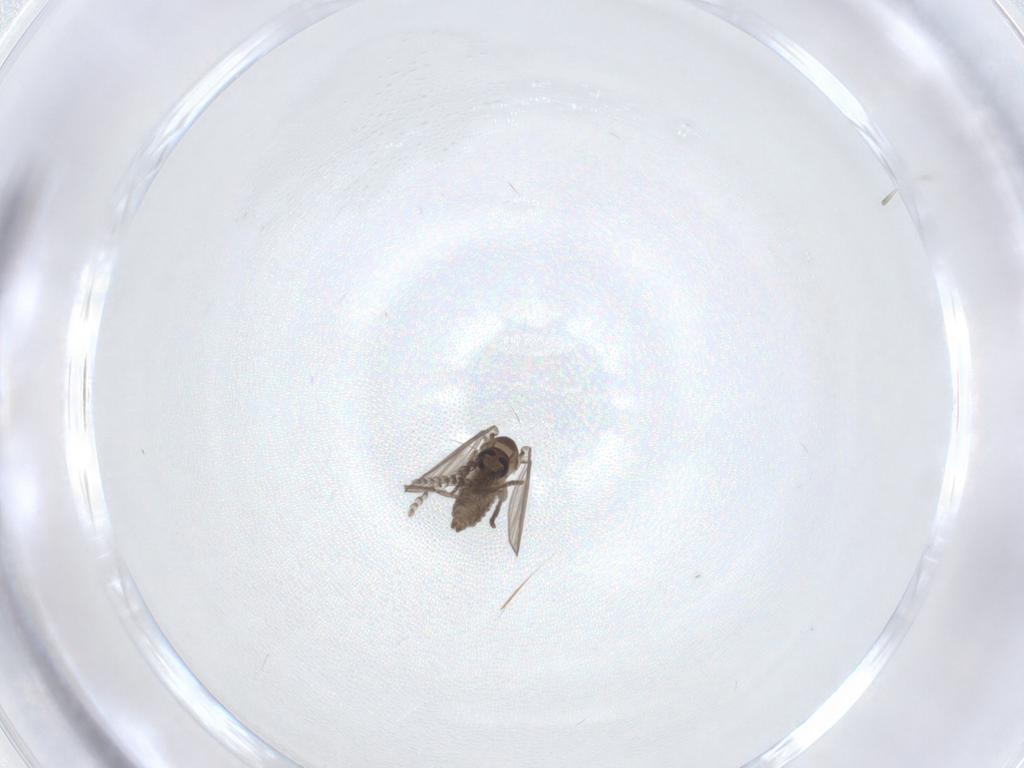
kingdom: Animalia
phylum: Arthropoda
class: Insecta
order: Diptera
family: Psychodidae
